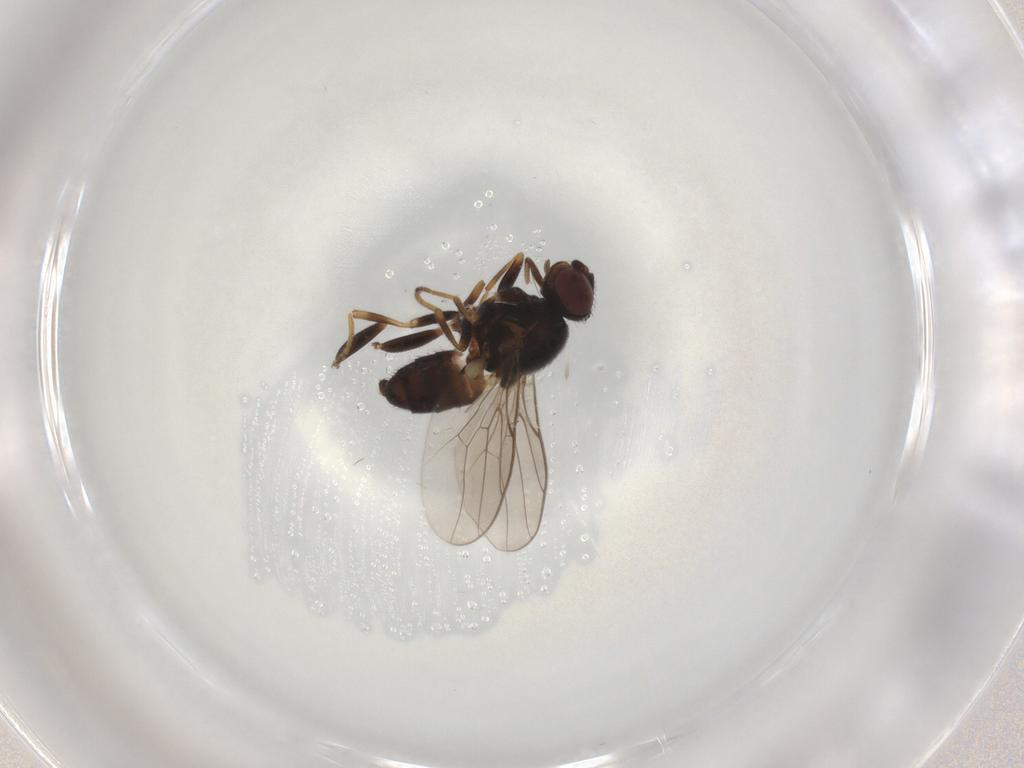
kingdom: Animalia
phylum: Arthropoda
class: Insecta
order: Diptera
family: Chloropidae
